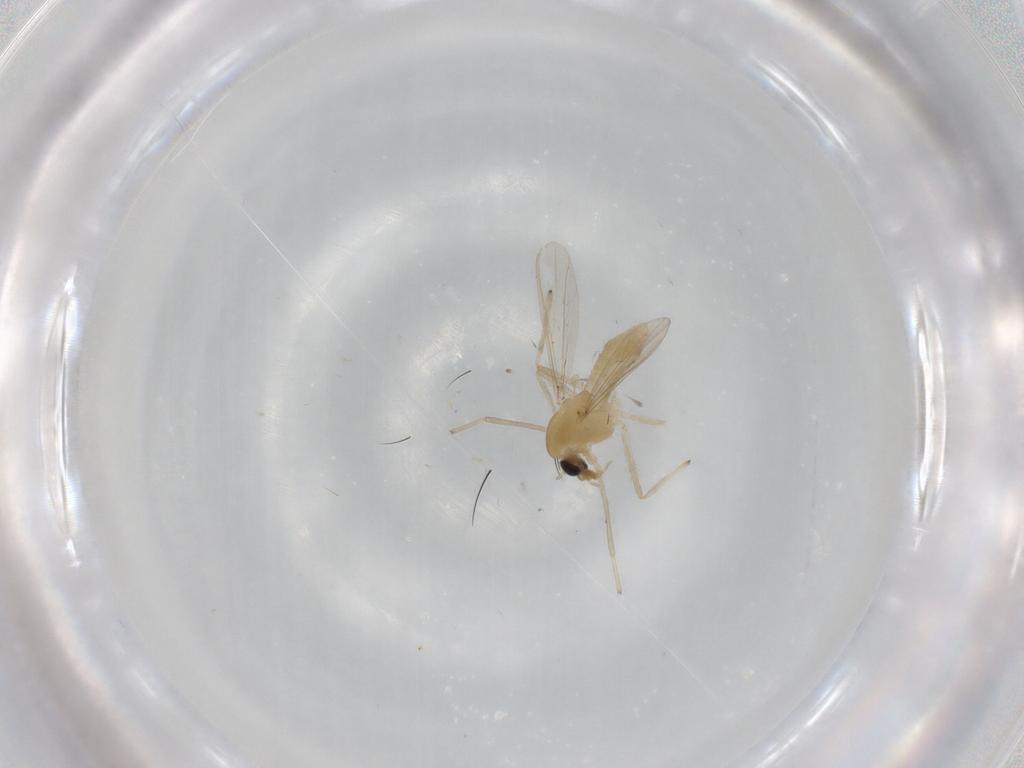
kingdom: Animalia
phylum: Arthropoda
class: Insecta
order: Diptera
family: Chironomidae
